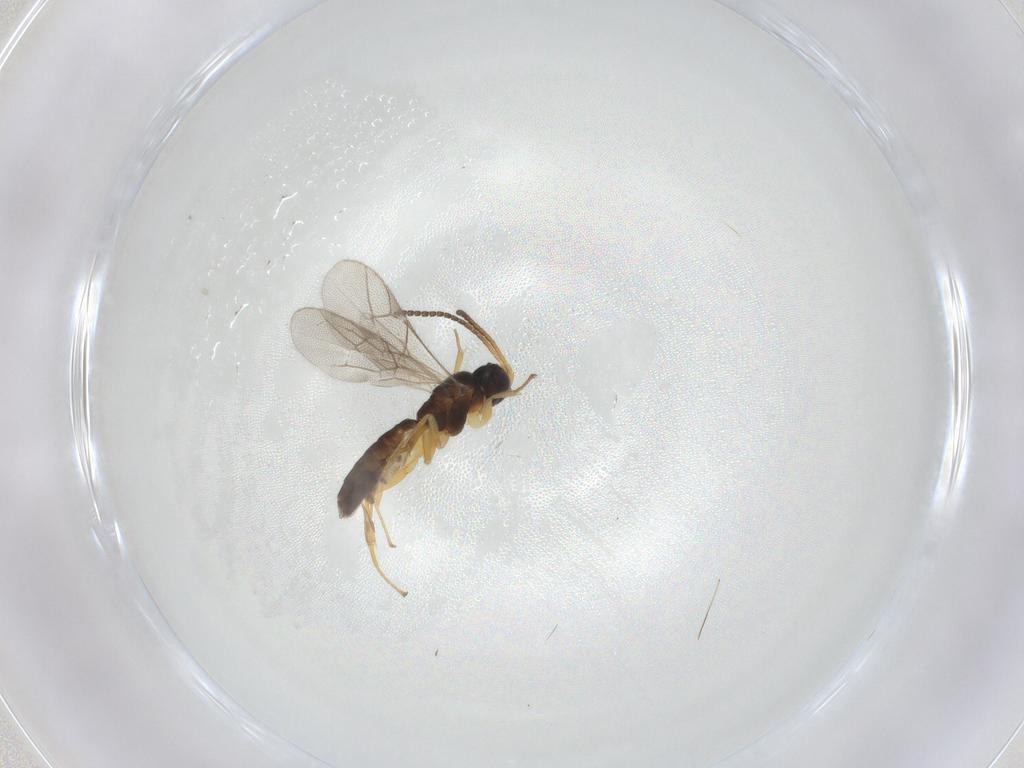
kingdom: Animalia
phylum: Arthropoda
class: Insecta
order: Hymenoptera
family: Ichneumonidae
